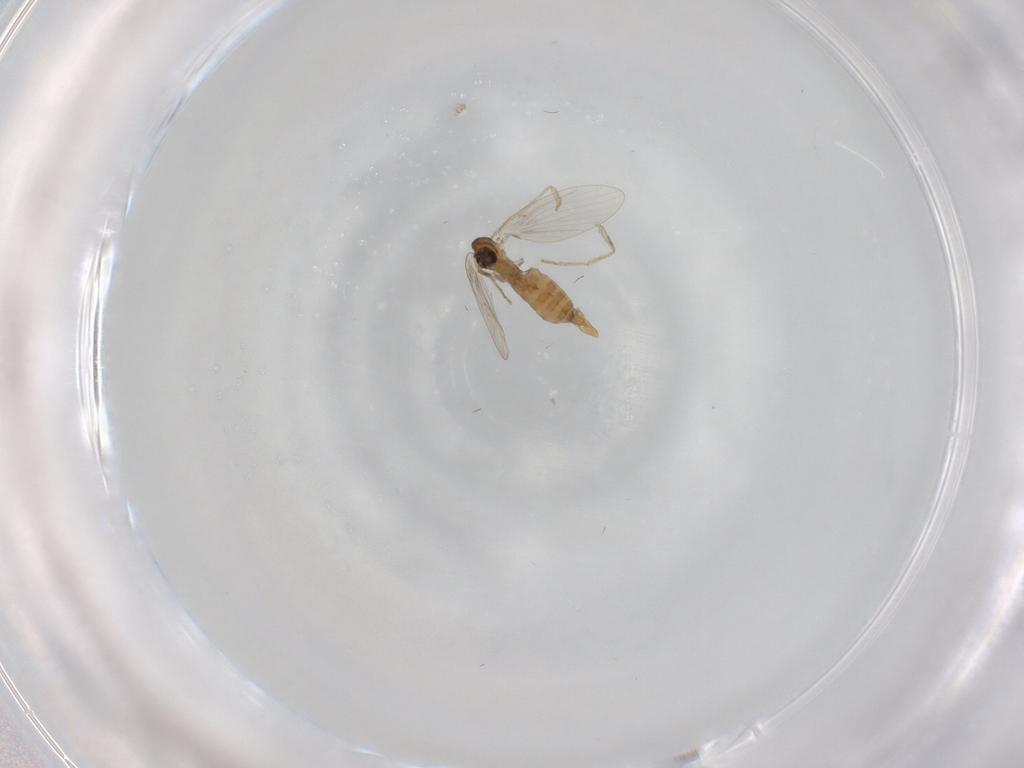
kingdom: Animalia
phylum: Arthropoda
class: Insecta
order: Diptera
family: Psychodidae
